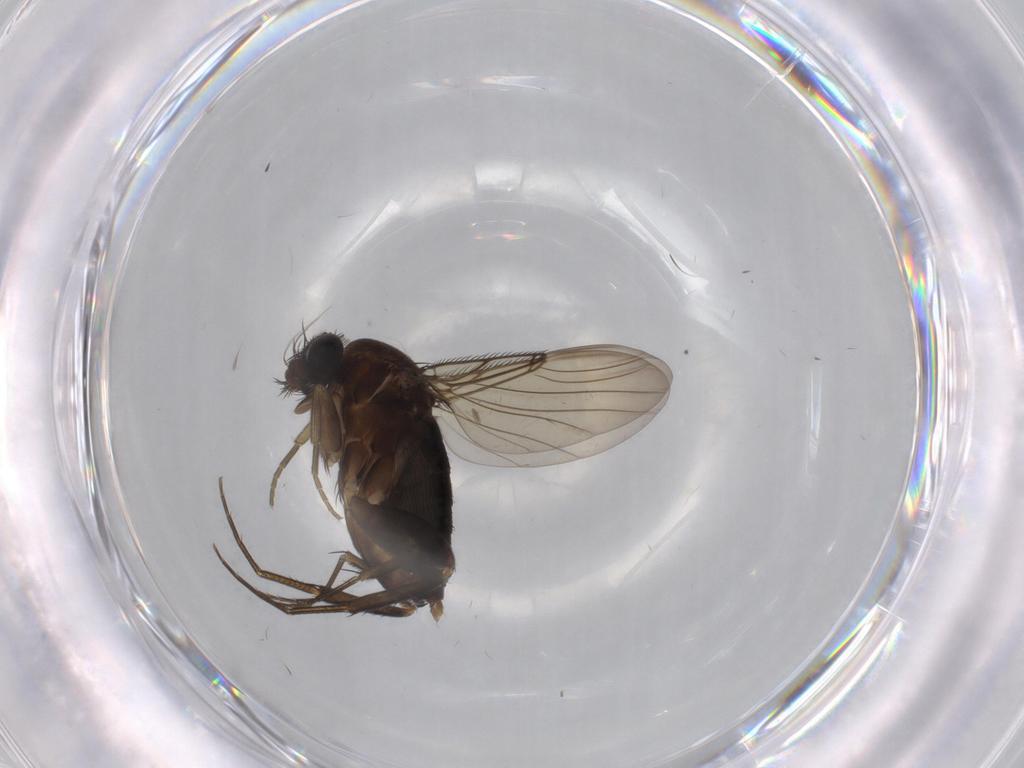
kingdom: Animalia
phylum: Arthropoda
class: Insecta
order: Diptera
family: Phoridae
